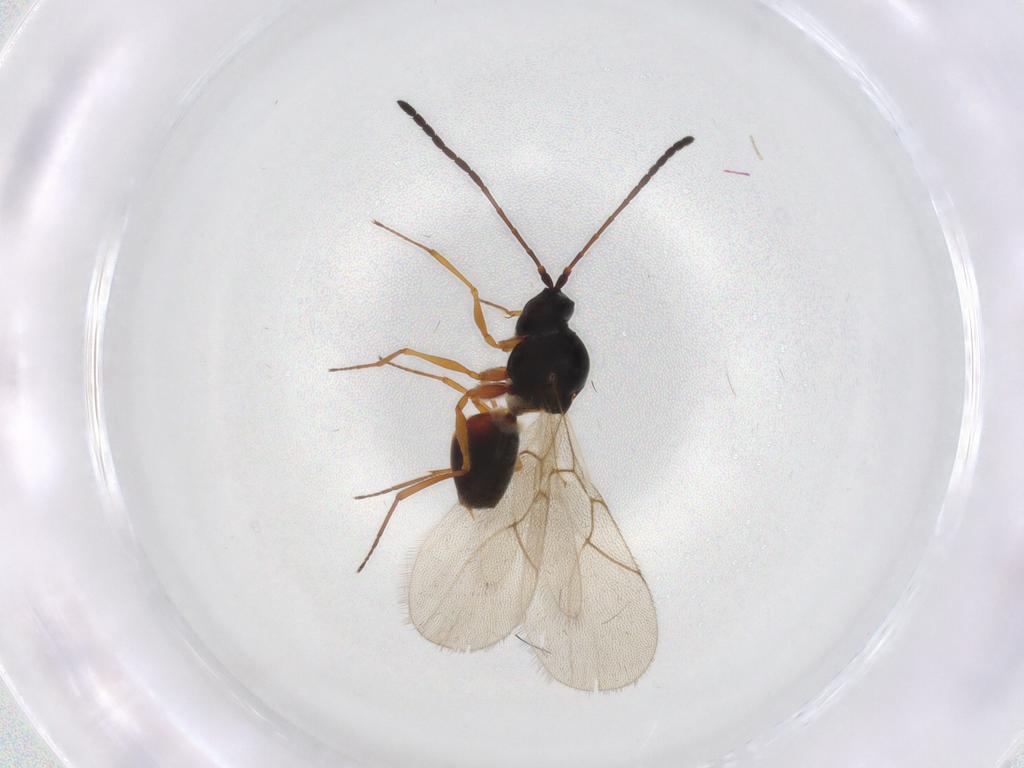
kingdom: Animalia
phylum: Arthropoda
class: Insecta
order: Hymenoptera
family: Figitidae
